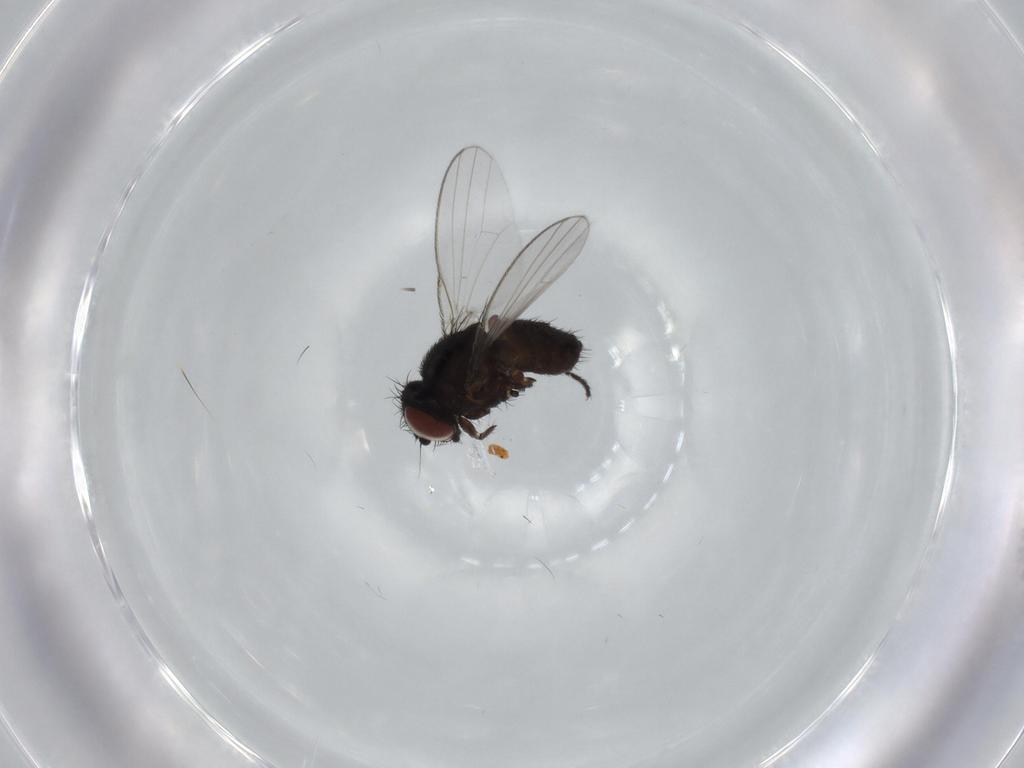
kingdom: Animalia
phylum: Arthropoda
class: Insecta
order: Diptera
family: Milichiidae
